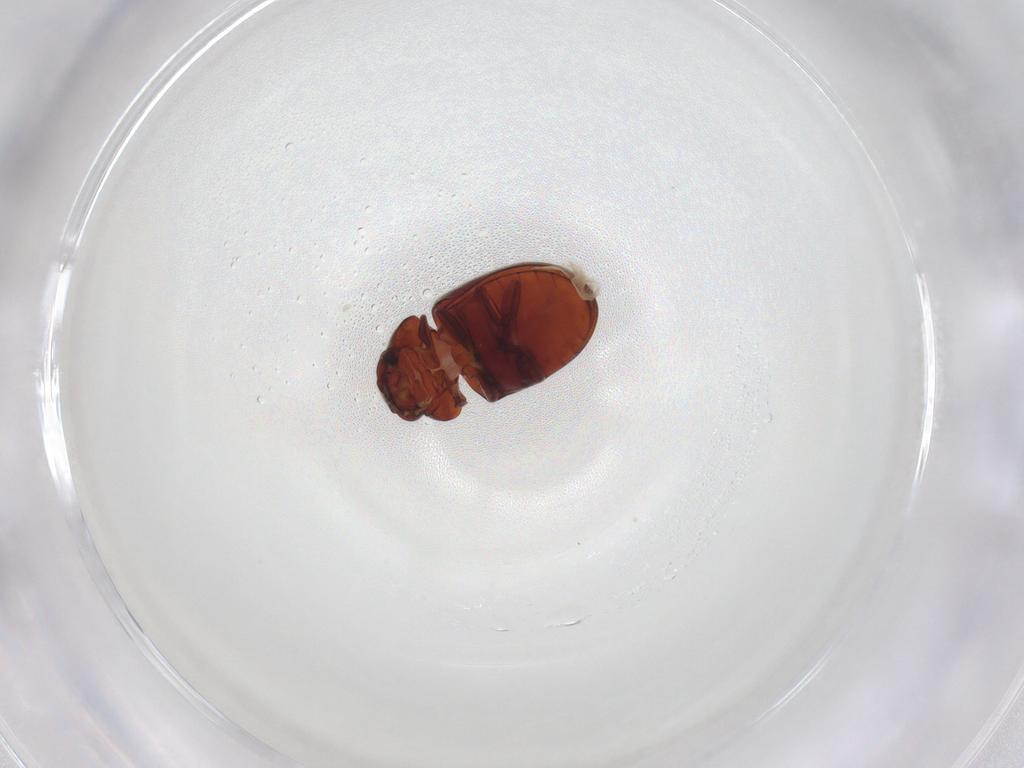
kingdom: Animalia
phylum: Arthropoda
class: Insecta
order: Coleoptera
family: Ptinidae
